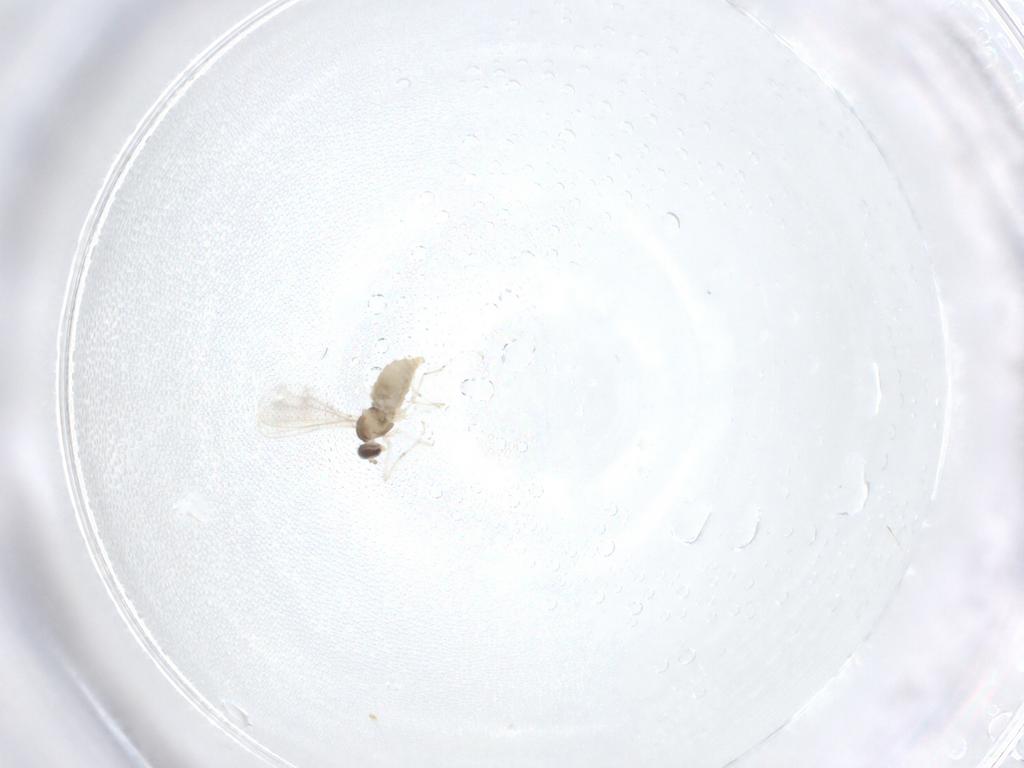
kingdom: Animalia
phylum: Arthropoda
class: Insecta
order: Diptera
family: Cecidomyiidae
